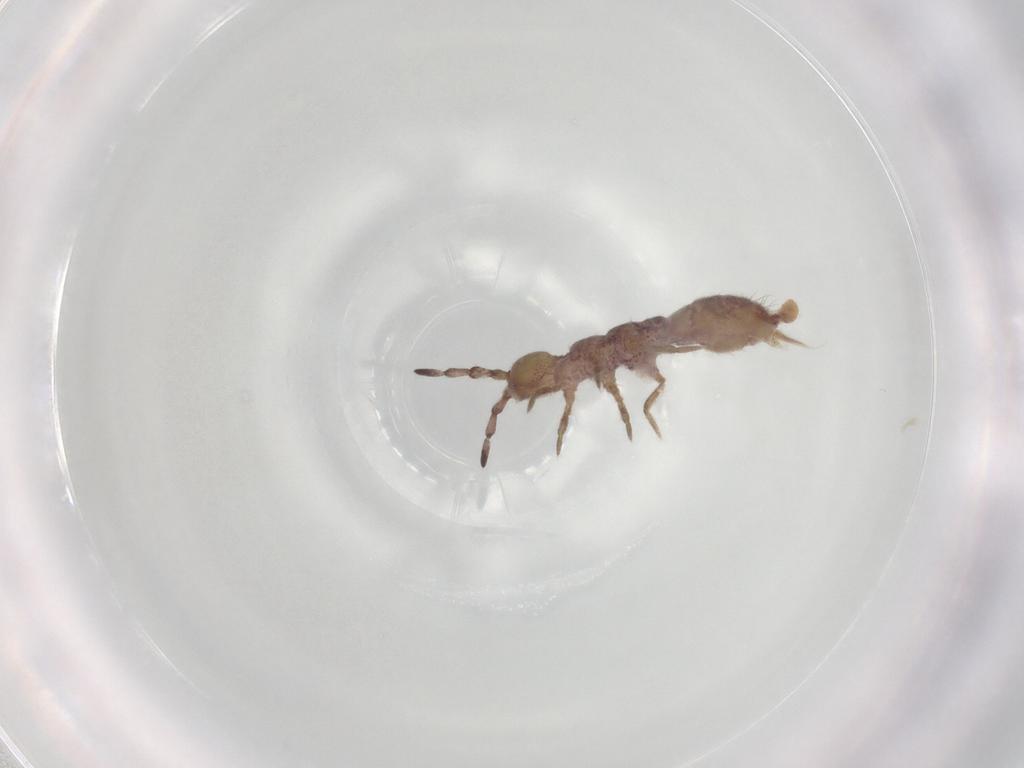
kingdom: Animalia
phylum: Arthropoda
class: Collembola
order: Entomobryomorpha
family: Isotomidae
